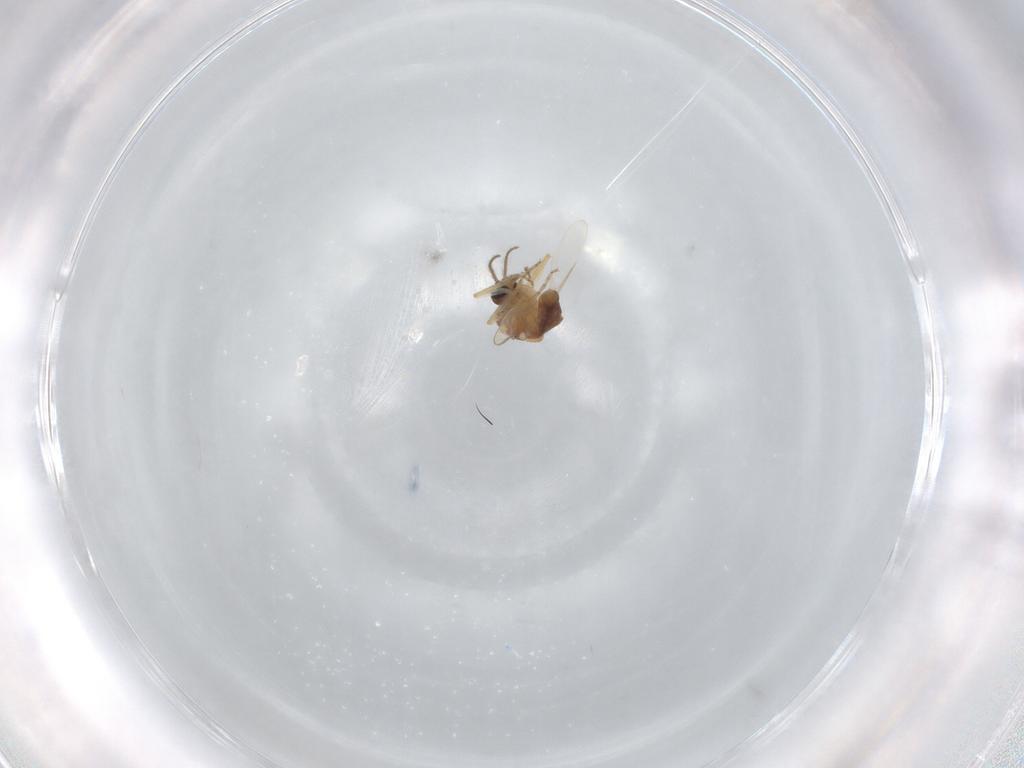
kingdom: Animalia
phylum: Arthropoda
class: Insecta
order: Diptera
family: Ceratopogonidae
